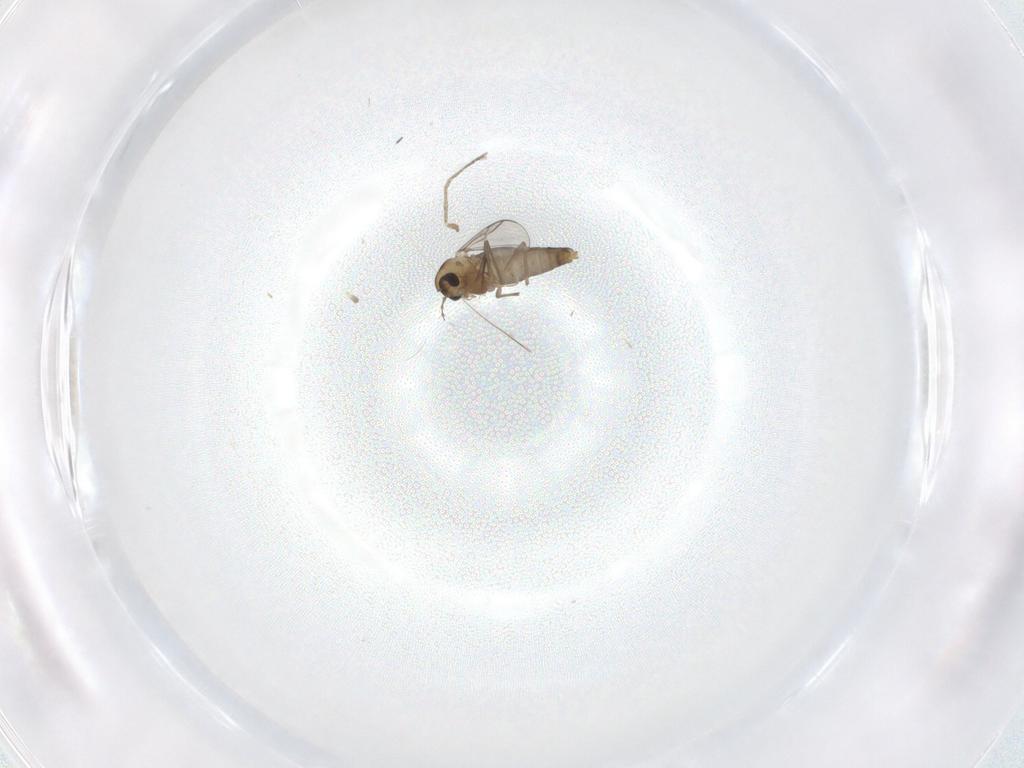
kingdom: Animalia
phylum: Arthropoda
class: Insecta
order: Diptera
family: Chironomidae
